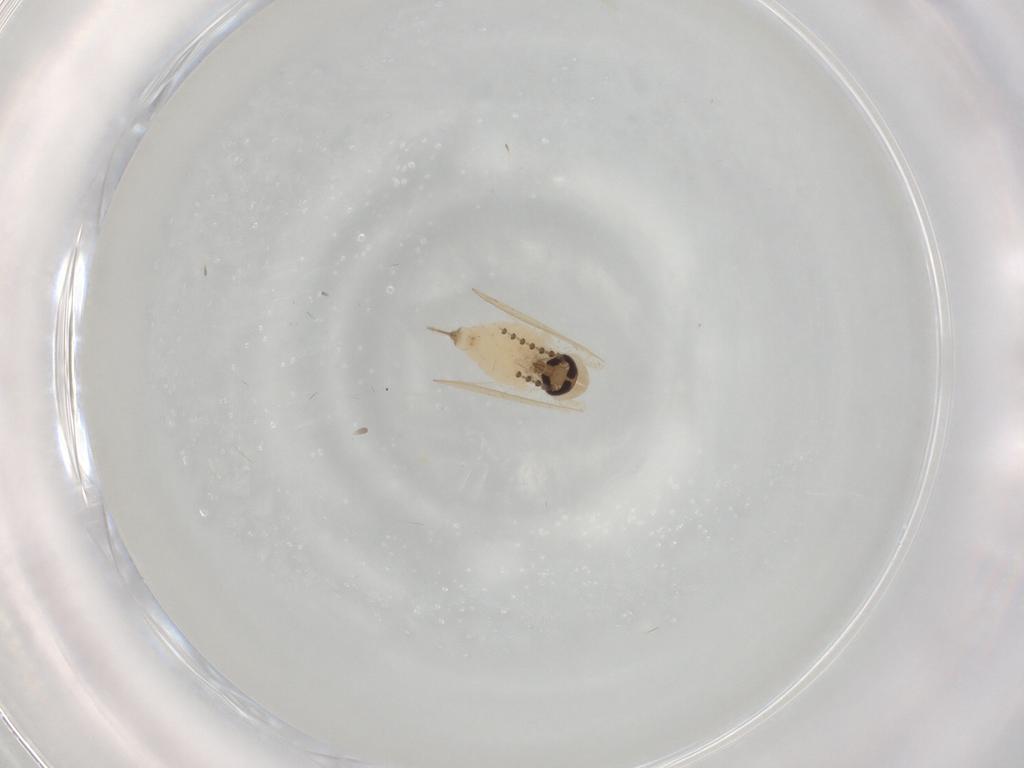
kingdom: Animalia
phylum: Arthropoda
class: Insecta
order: Diptera
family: Psychodidae
